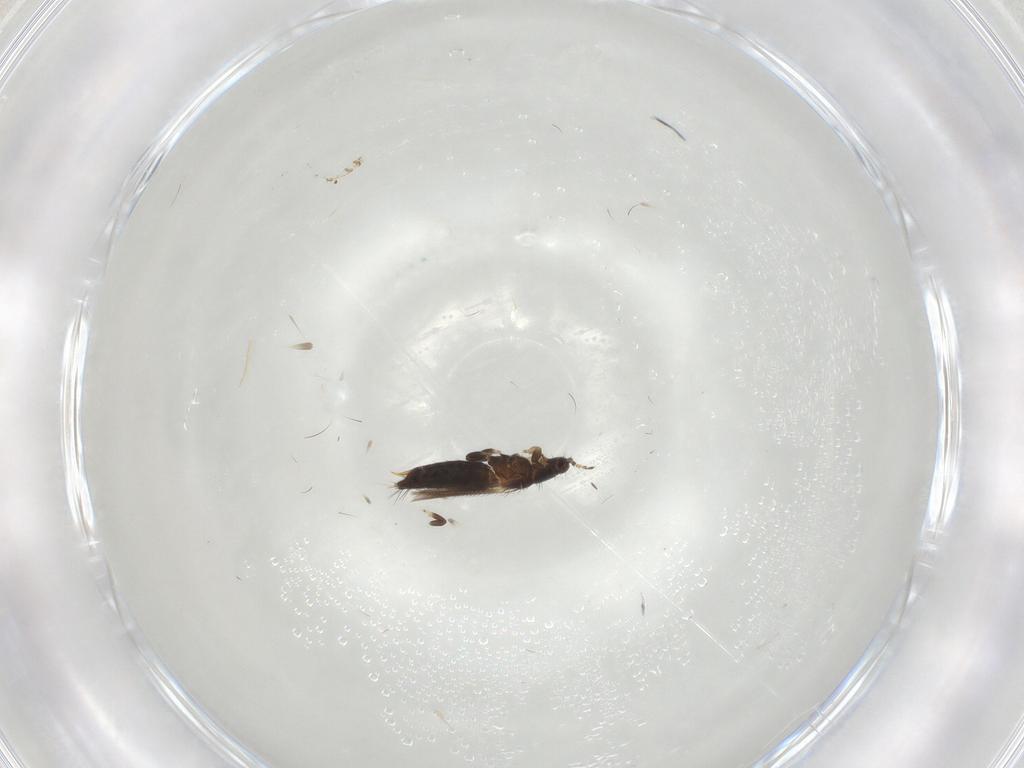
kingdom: Animalia
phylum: Arthropoda
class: Insecta
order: Thysanoptera
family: Thripidae
